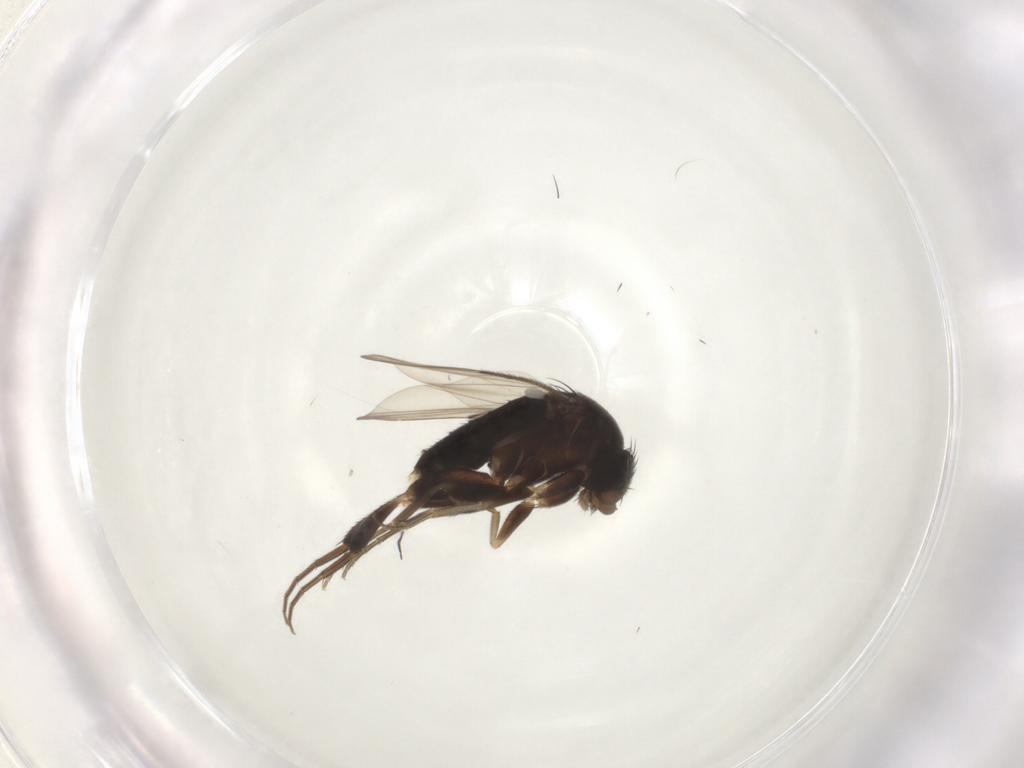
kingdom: Animalia
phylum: Arthropoda
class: Insecta
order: Diptera
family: Phoridae
